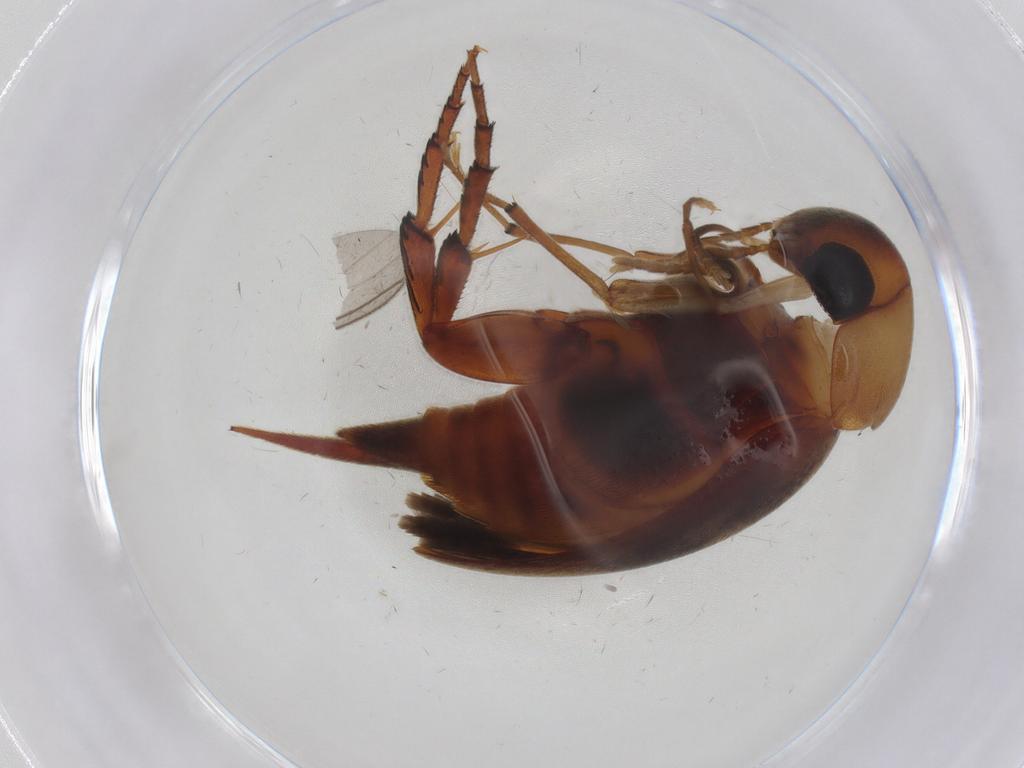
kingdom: Animalia
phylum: Arthropoda
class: Insecta
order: Coleoptera
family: Mordellidae
